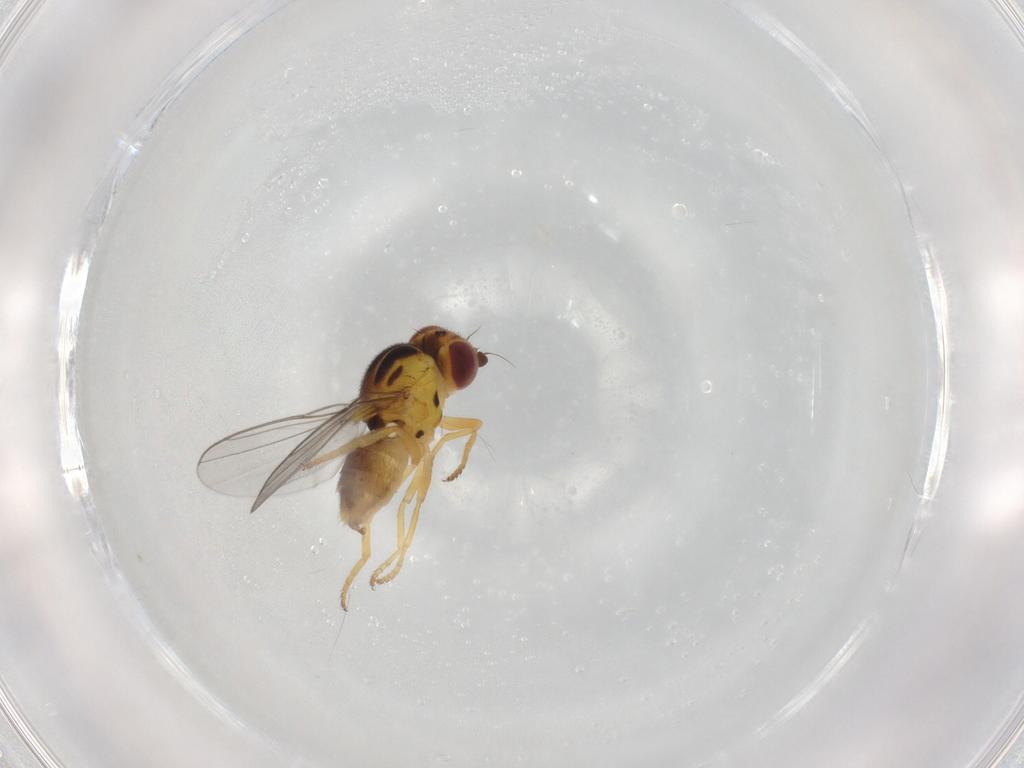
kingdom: Animalia
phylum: Arthropoda
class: Insecta
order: Diptera
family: Chloropidae
